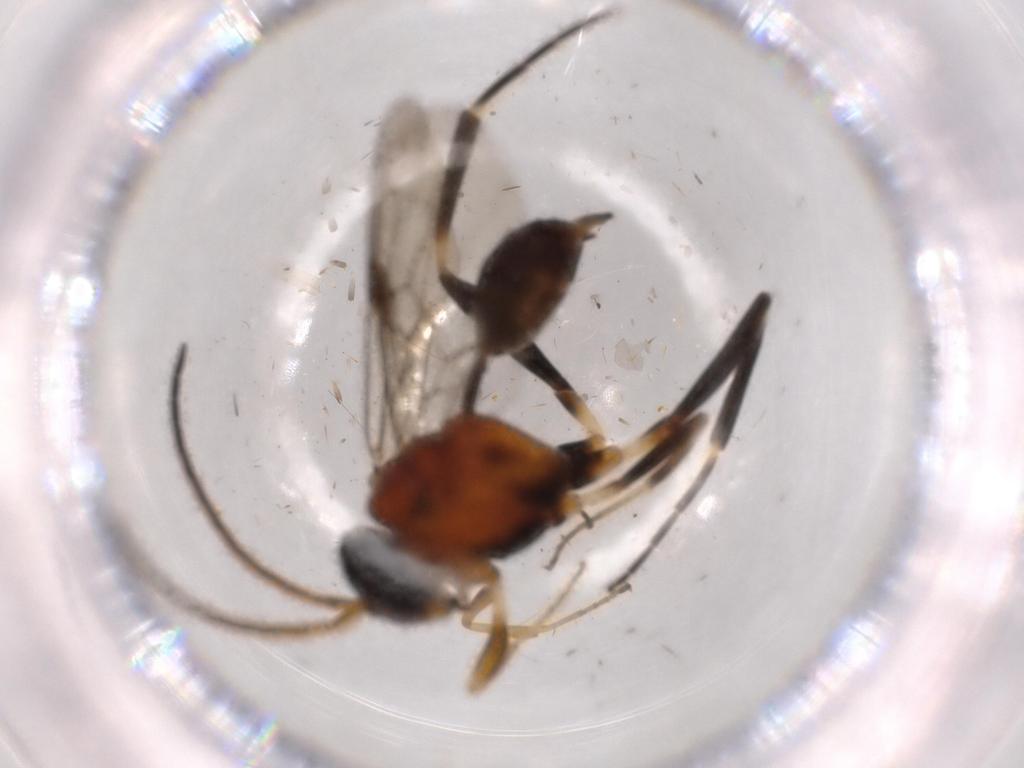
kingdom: Animalia
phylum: Arthropoda
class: Insecta
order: Hymenoptera
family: Evaniidae
